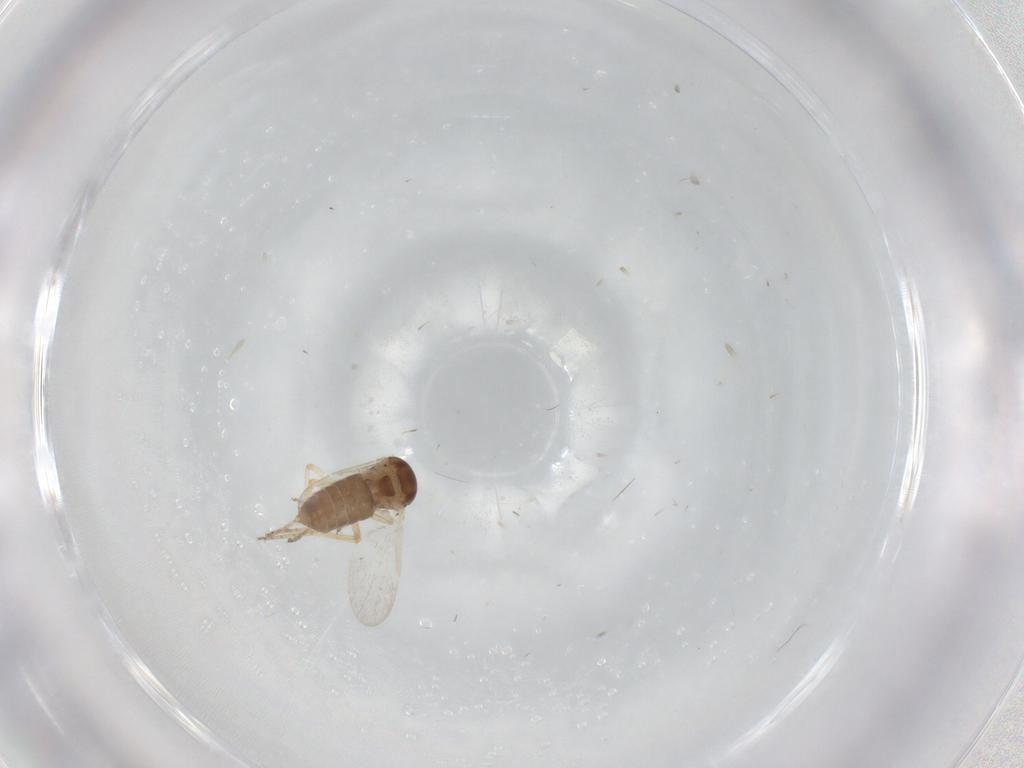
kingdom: Animalia
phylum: Arthropoda
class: Insecta
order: Diptera
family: Ceratopogonidae
